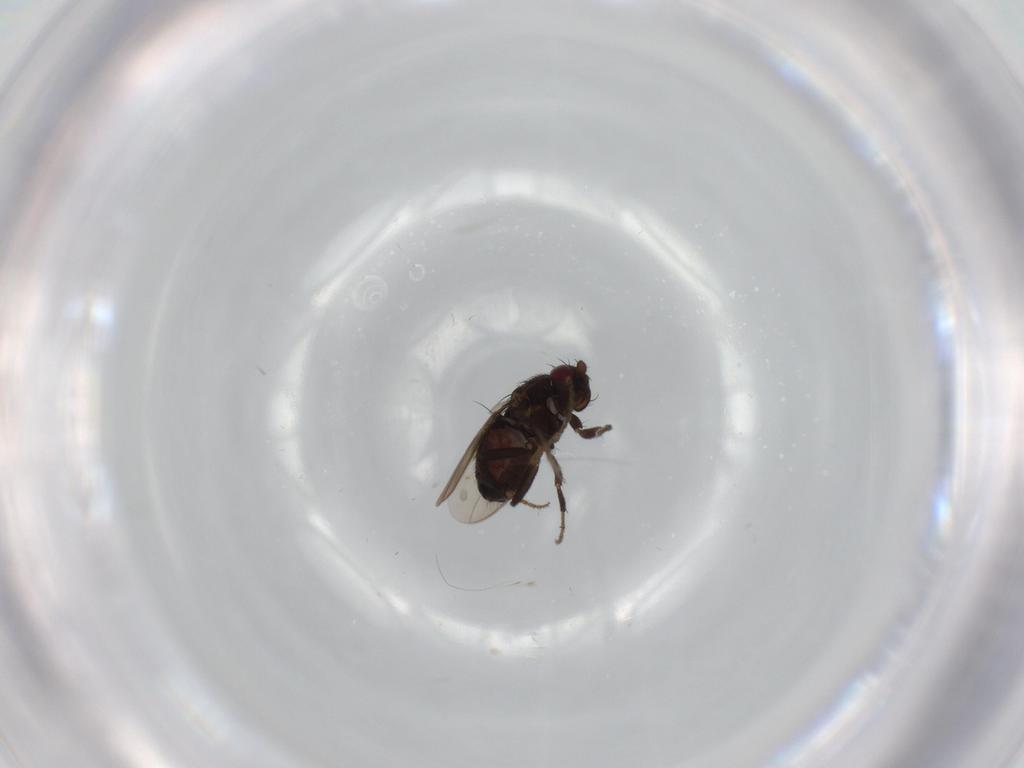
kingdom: Animalia
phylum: Arthropoda
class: Insecta
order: Diptera
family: Sphaeroceridae
